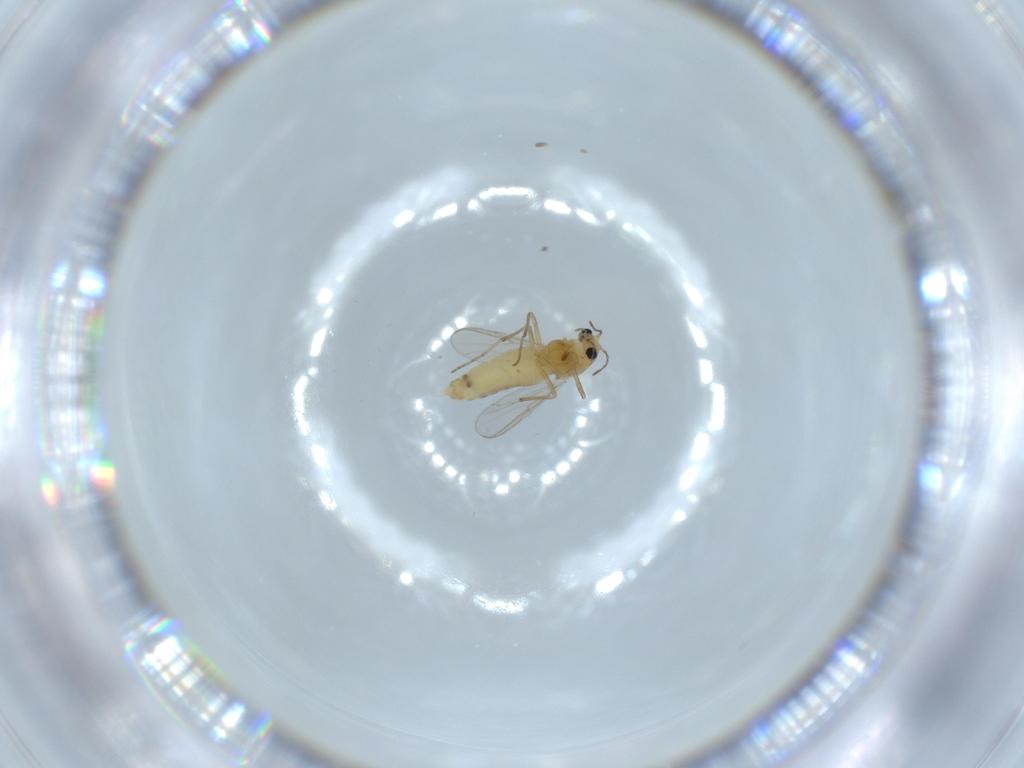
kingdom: Animalia
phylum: Arthropoda
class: Insecta
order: Diptera
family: Chironomidae
